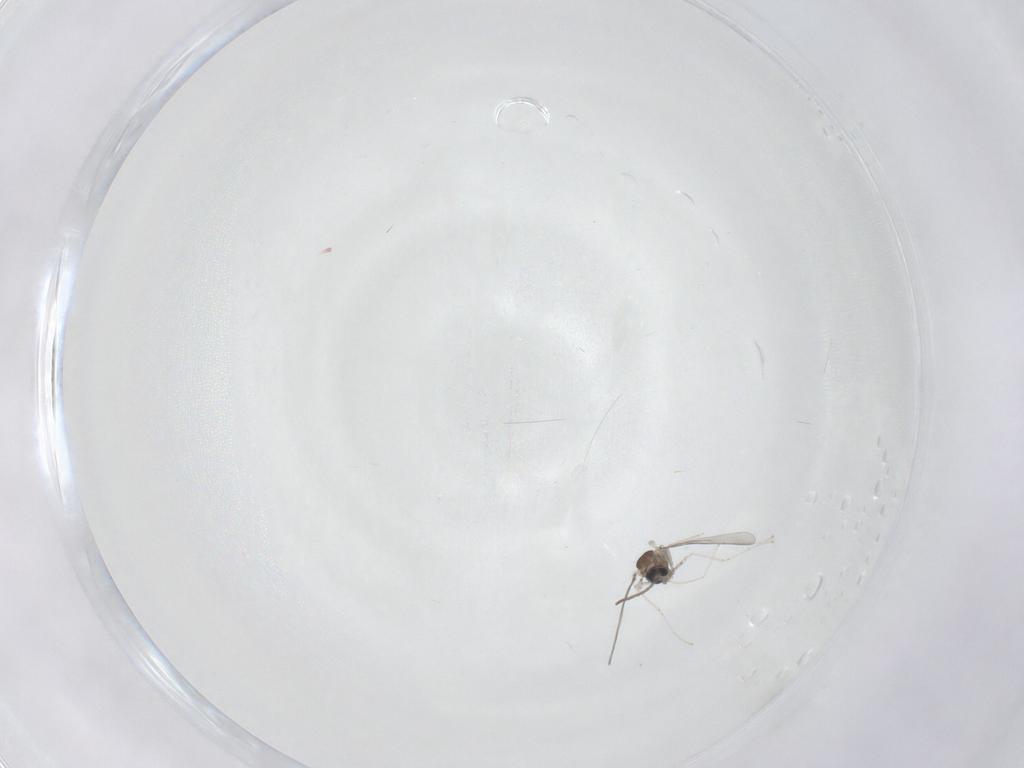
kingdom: Animalia
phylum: Arthropoda
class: Insecta
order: Diptera
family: Cecidomyiidae
